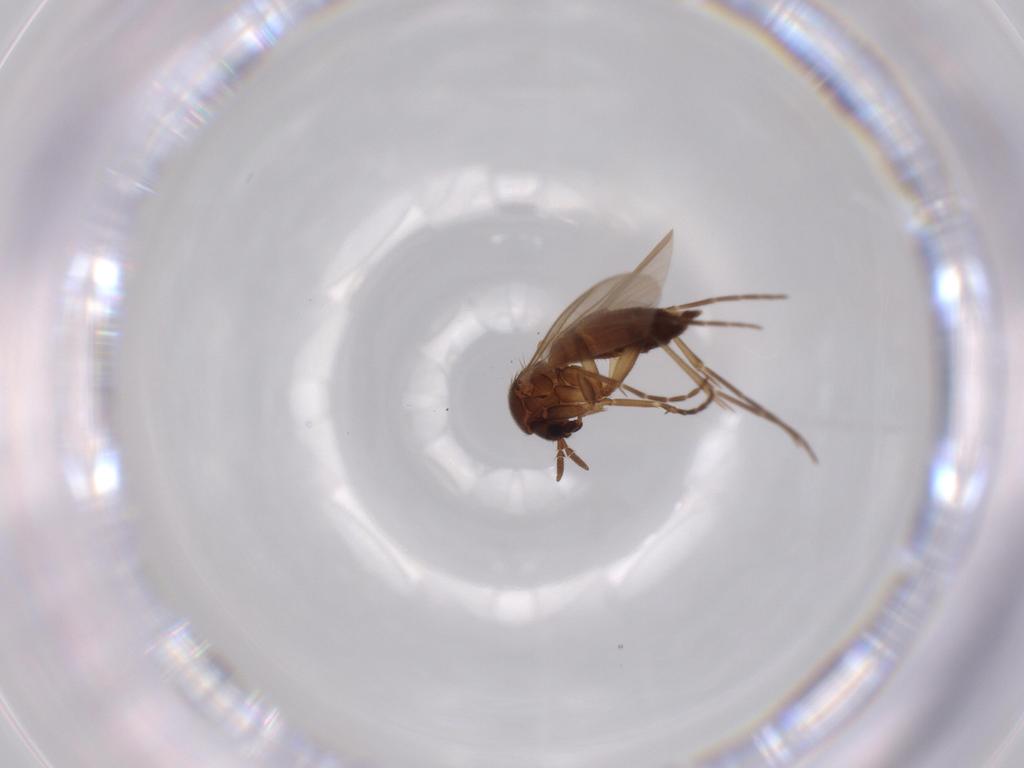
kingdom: Animalia
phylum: Arthropoda
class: Insecta
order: Diptera
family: Mycetophilidae
